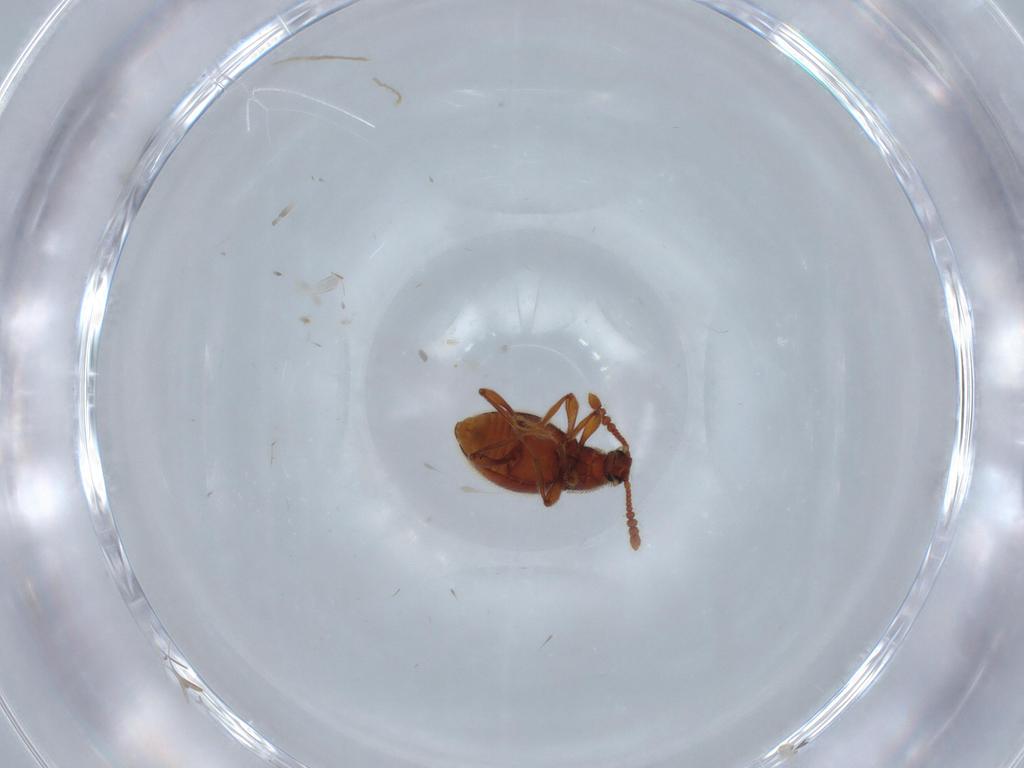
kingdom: Animalia
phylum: Arthropoda
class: Insecta
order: Coleoptera
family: Staphylinidae
